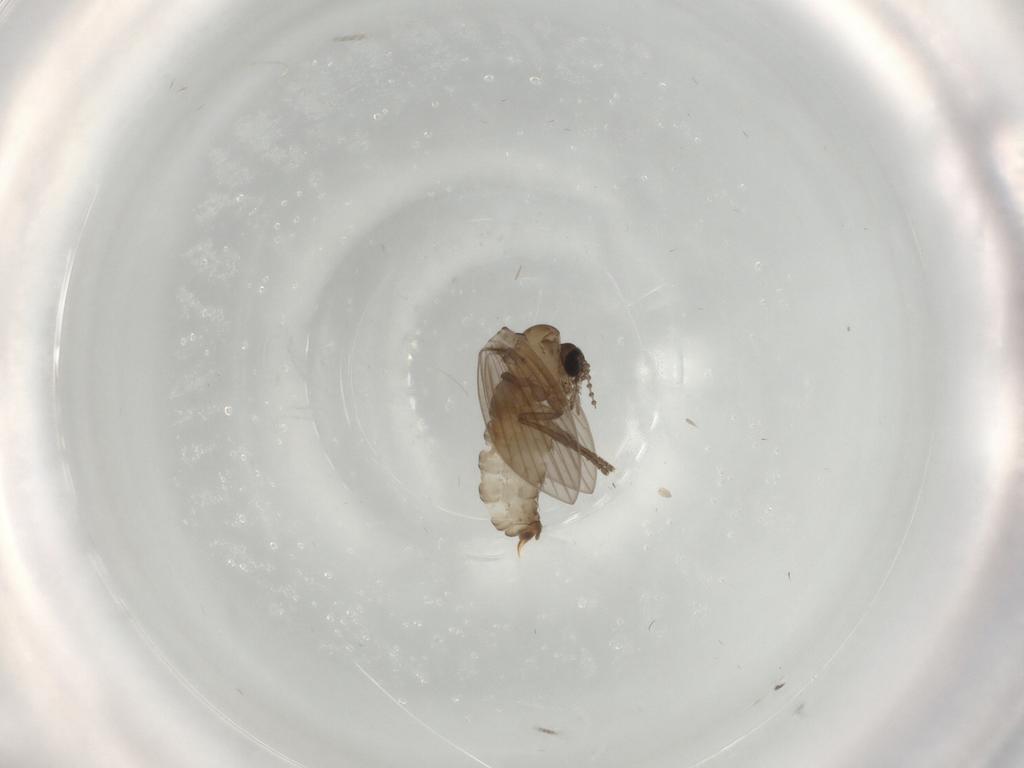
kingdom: Animalia
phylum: Arthropoda
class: Insecta
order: Diptera
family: Psychodidae
